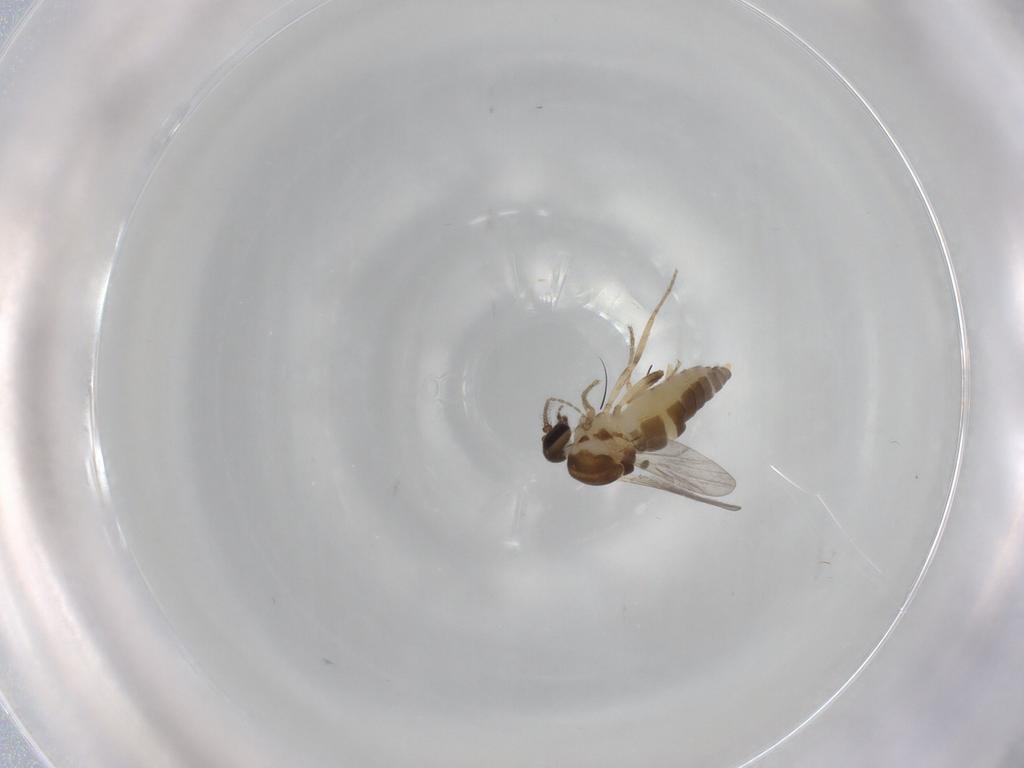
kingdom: Animalia
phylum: Arthropoda
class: Insecta
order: Diptera
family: Ceratopogonidae
